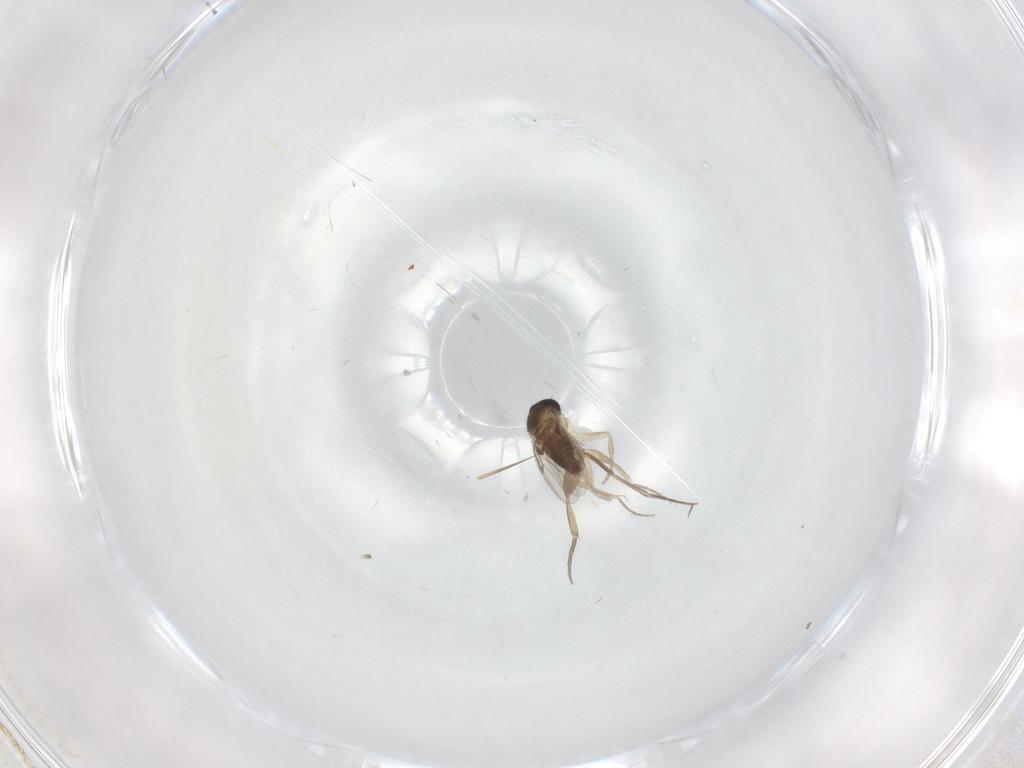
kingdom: Animalia
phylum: Arthropoda
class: Insecta
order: Diptera
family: Phoridae
